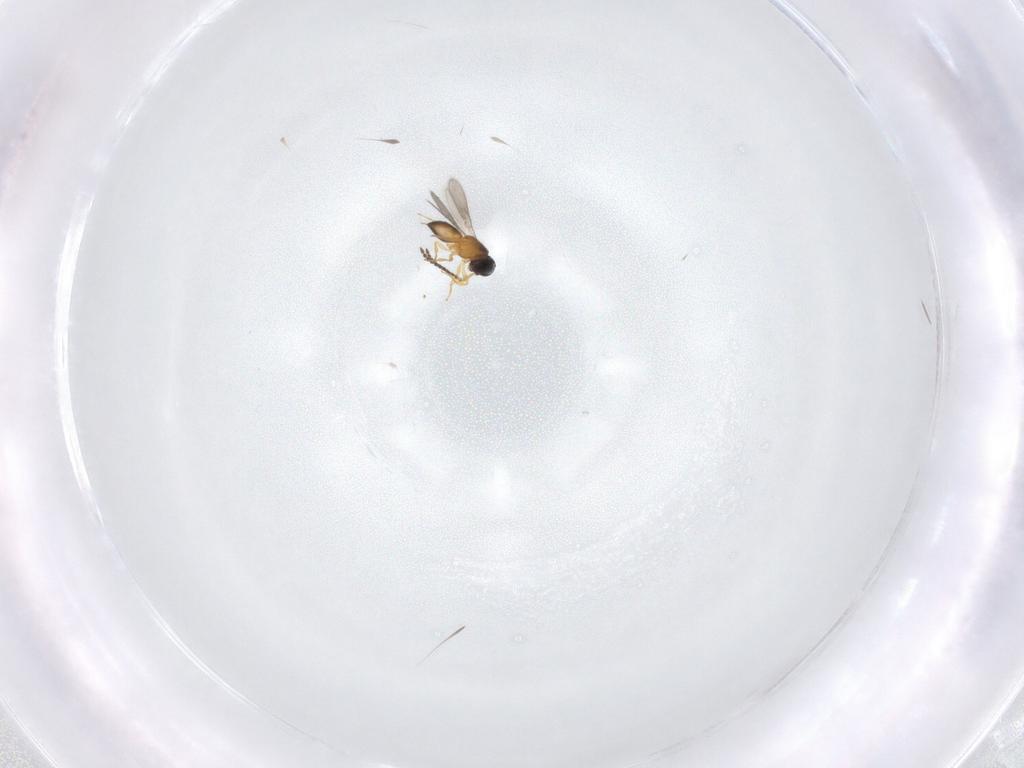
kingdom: Animalia
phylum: Arthropoda
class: Insecta
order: Hymenoptera
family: Scelionidae
